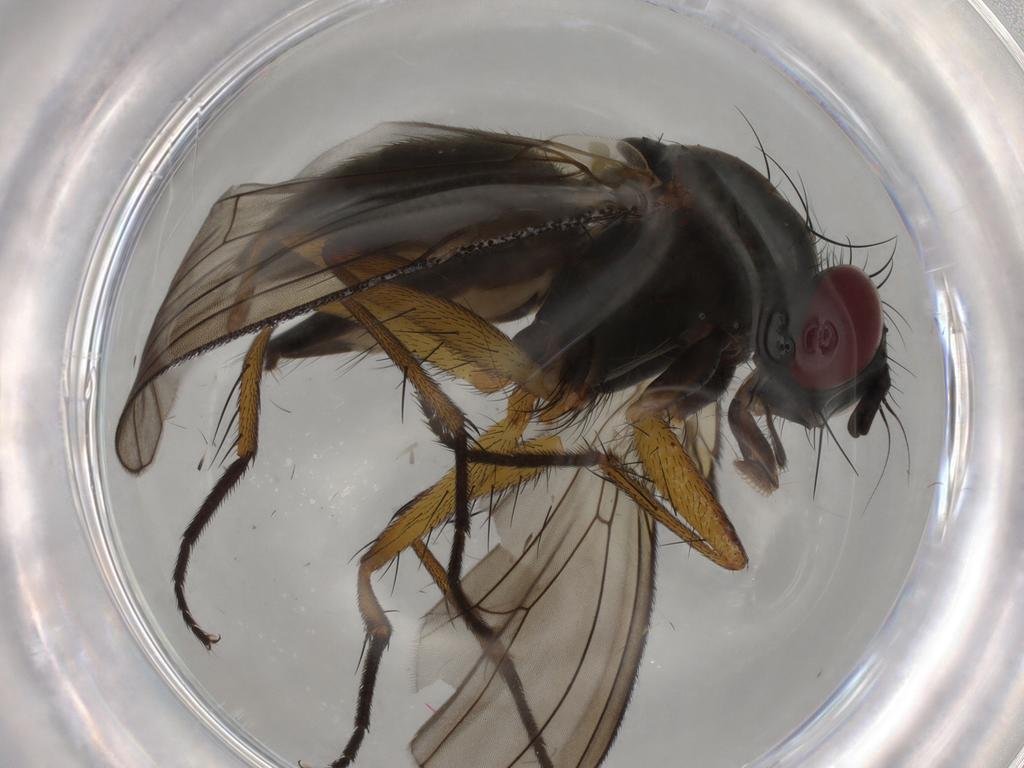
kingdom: Animalia
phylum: Arthropoda
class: Insecta
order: Diptera
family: Muscidae
